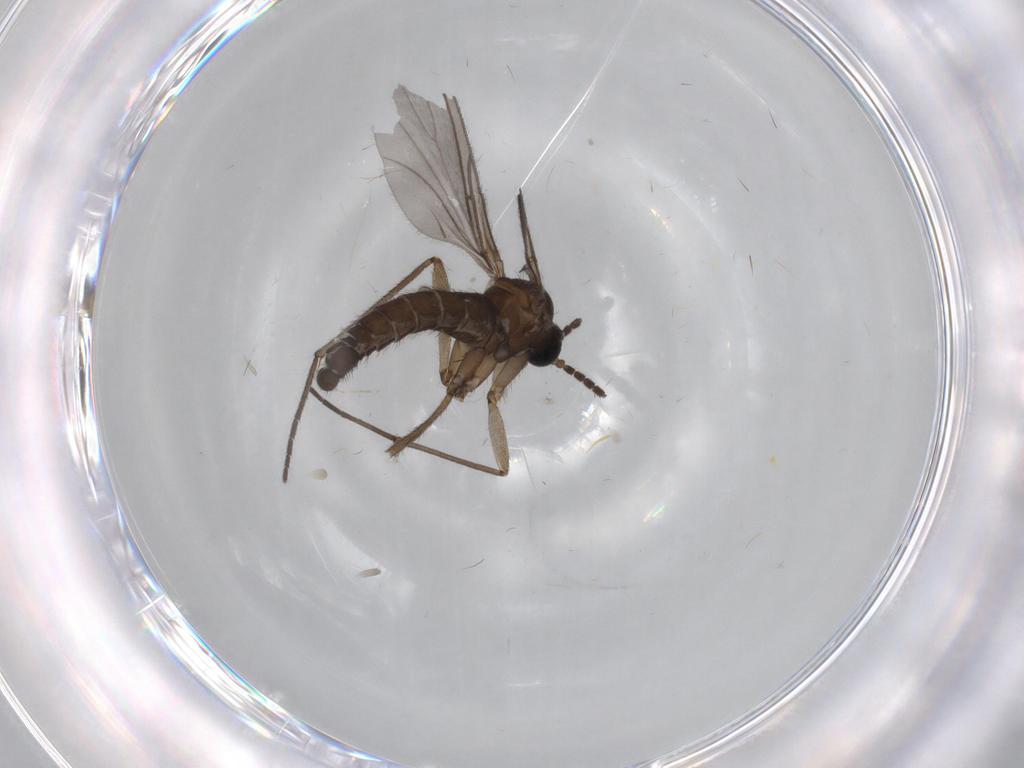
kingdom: Animalia
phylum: Arthropoda
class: Insecta
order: Diptera
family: Sciaridae
